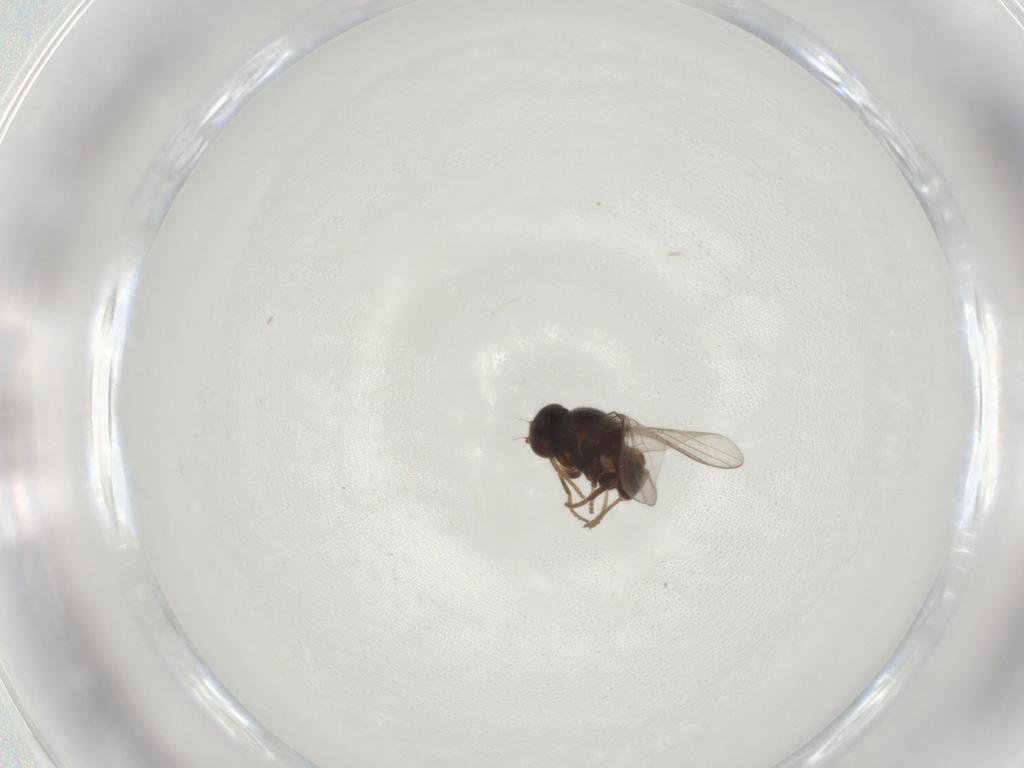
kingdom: Animalia
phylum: Arthropoda
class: Insecta
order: Diptera
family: Chloropidae
